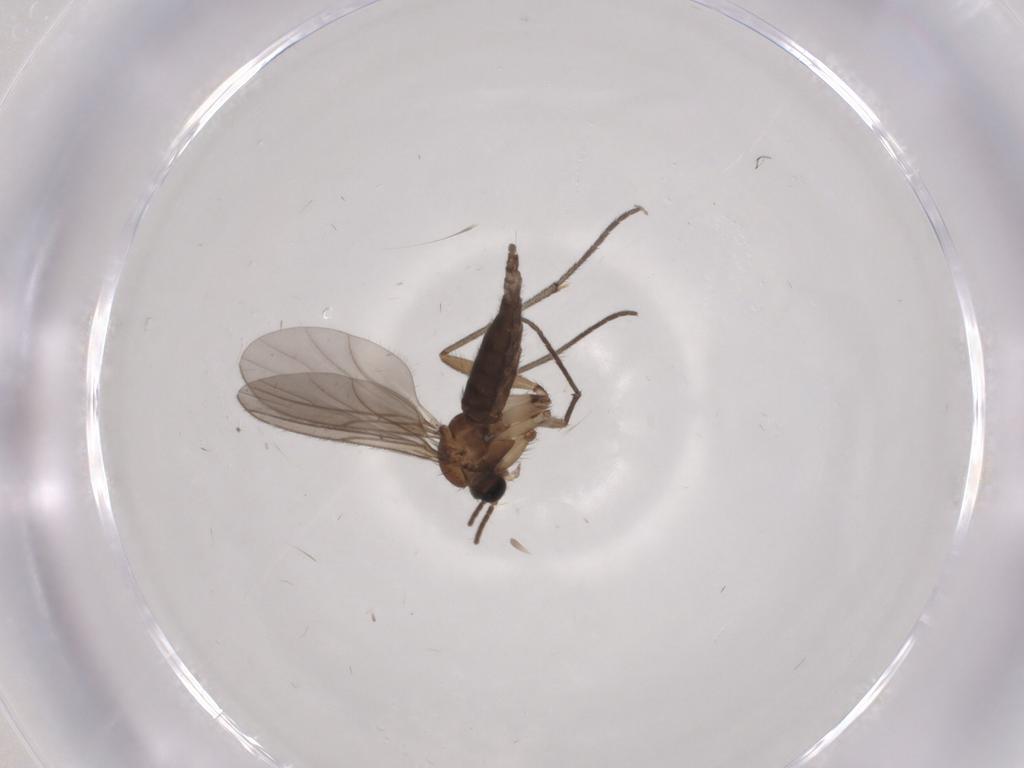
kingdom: Animalia
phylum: Arthropoda
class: Insecta
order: Diptera
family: Sciaridae
